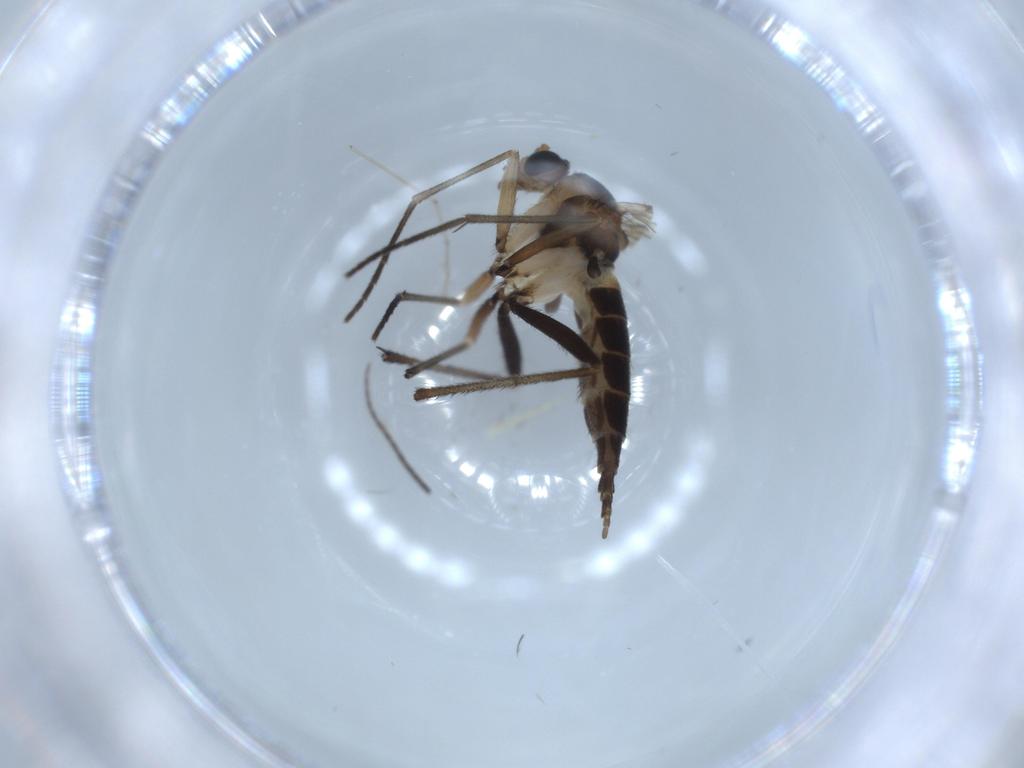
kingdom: Animalia
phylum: Arthropoda
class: Insecta
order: Diptera
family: Sciaridae
